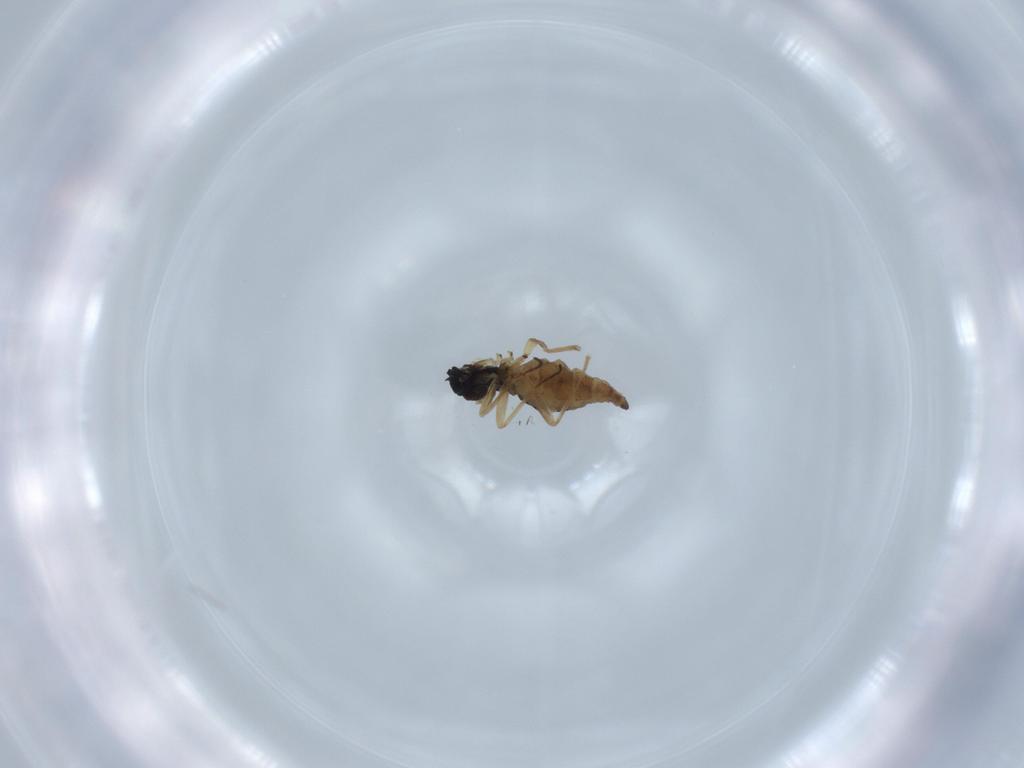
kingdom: Animalia
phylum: Arthropoda
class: Insecta
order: Diptera
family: Sciaridae
